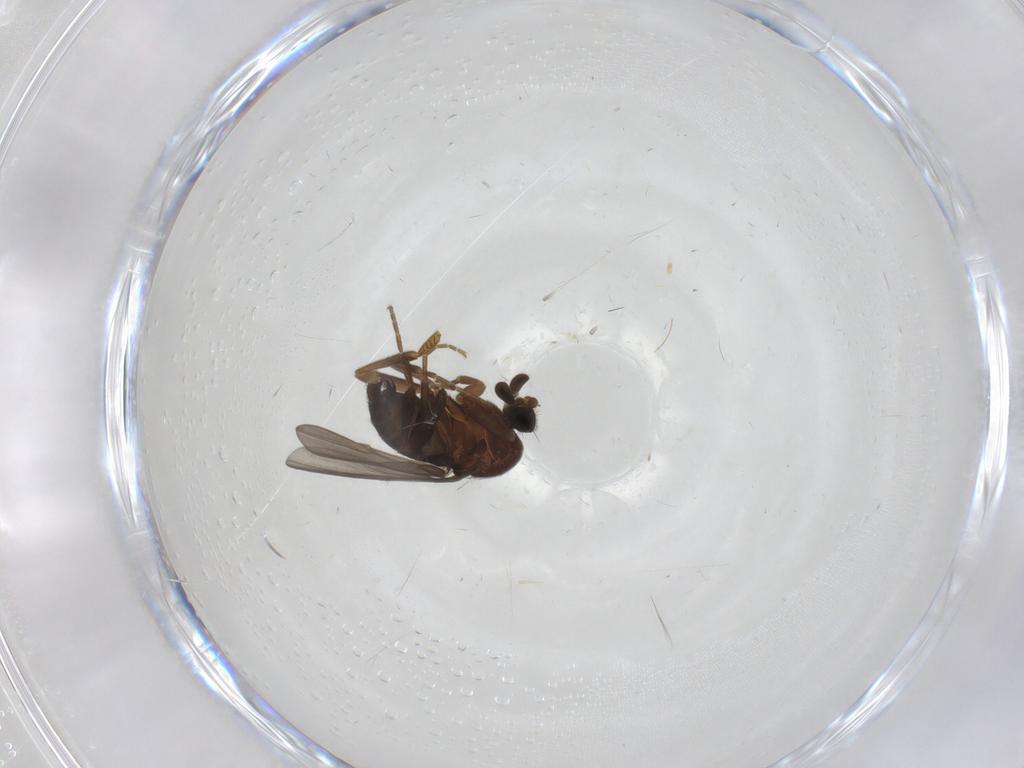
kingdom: Animalia
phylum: Arthropoda
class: Insecta
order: Diptera
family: Phoridae
